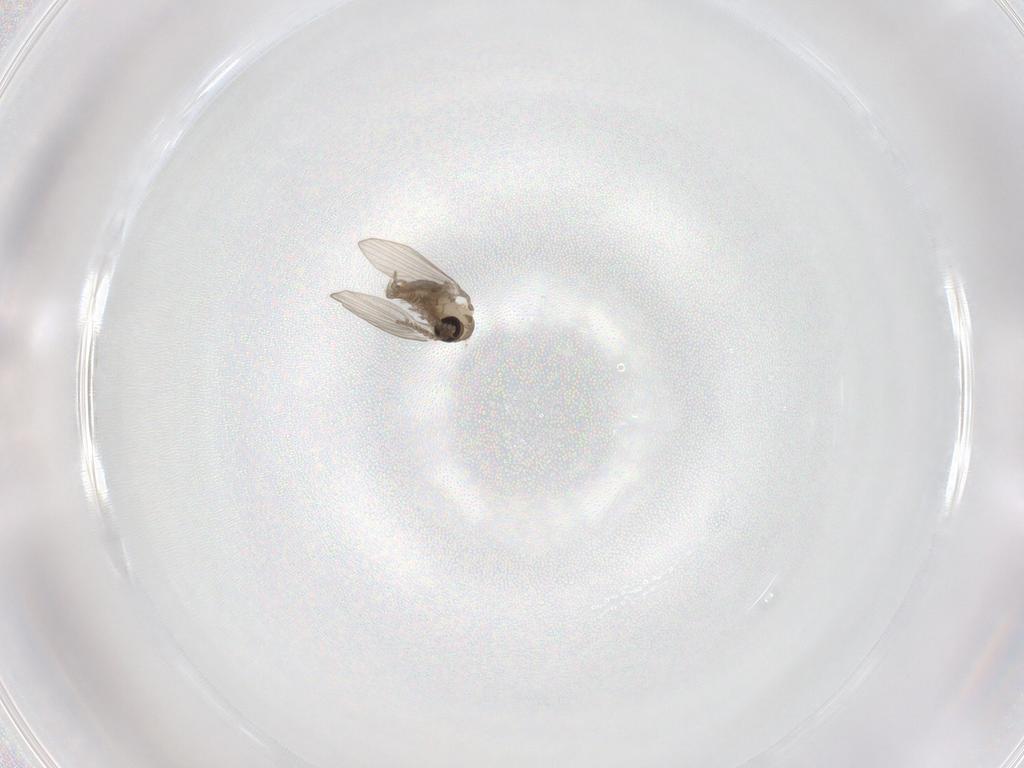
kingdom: Animalia
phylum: Arthropoda
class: Insecta
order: Diptera
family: Psychodidae
